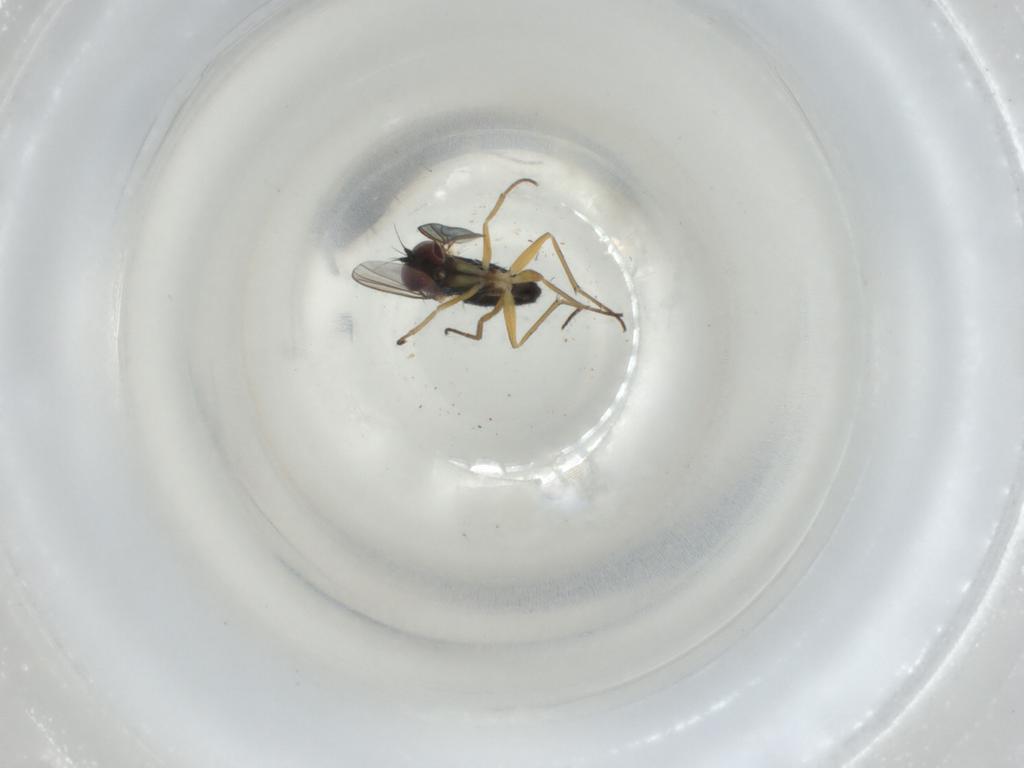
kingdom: Animalia
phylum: Arthropoda
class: Insecta
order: Diptera
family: Dolichopodidae
